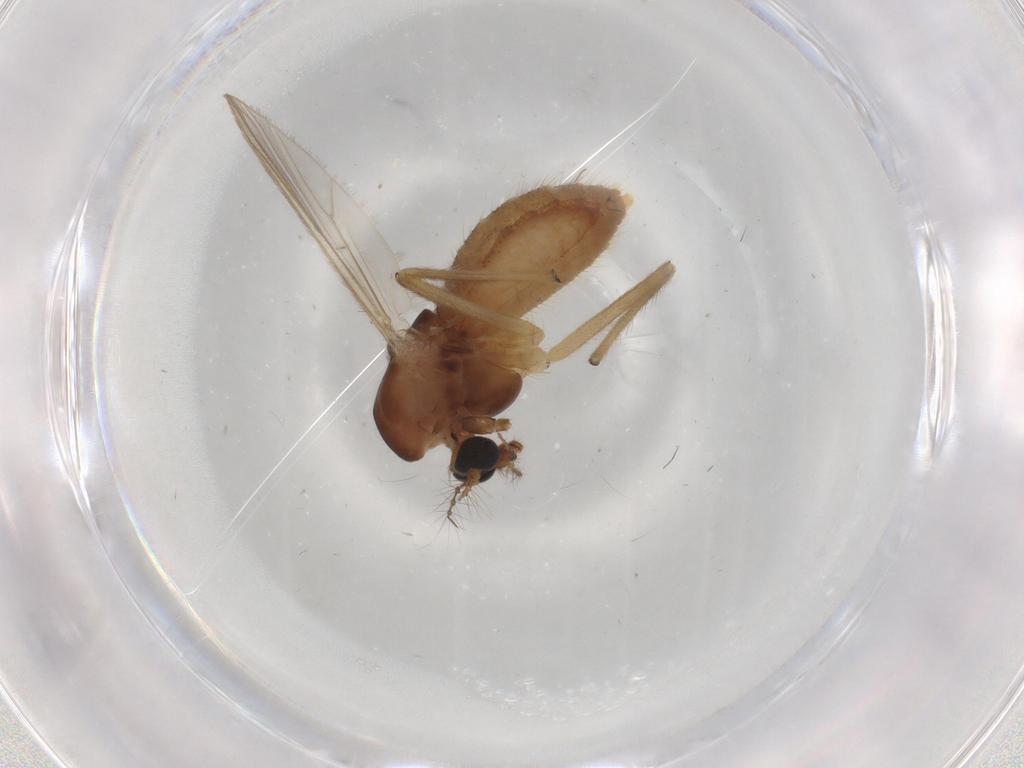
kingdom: Animalia
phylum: Arthropoda
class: Insecta
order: Diptera
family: Chironomidae
